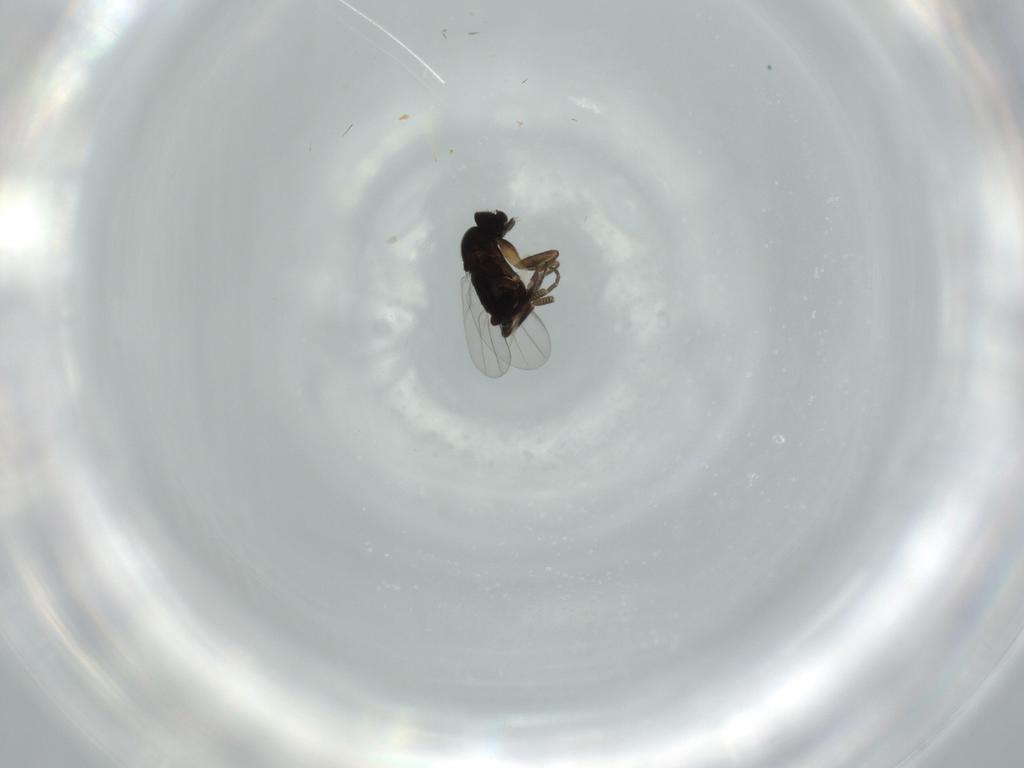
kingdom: Animalia
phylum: Arthropoda
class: Insecta
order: Diptera
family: Phoridae
